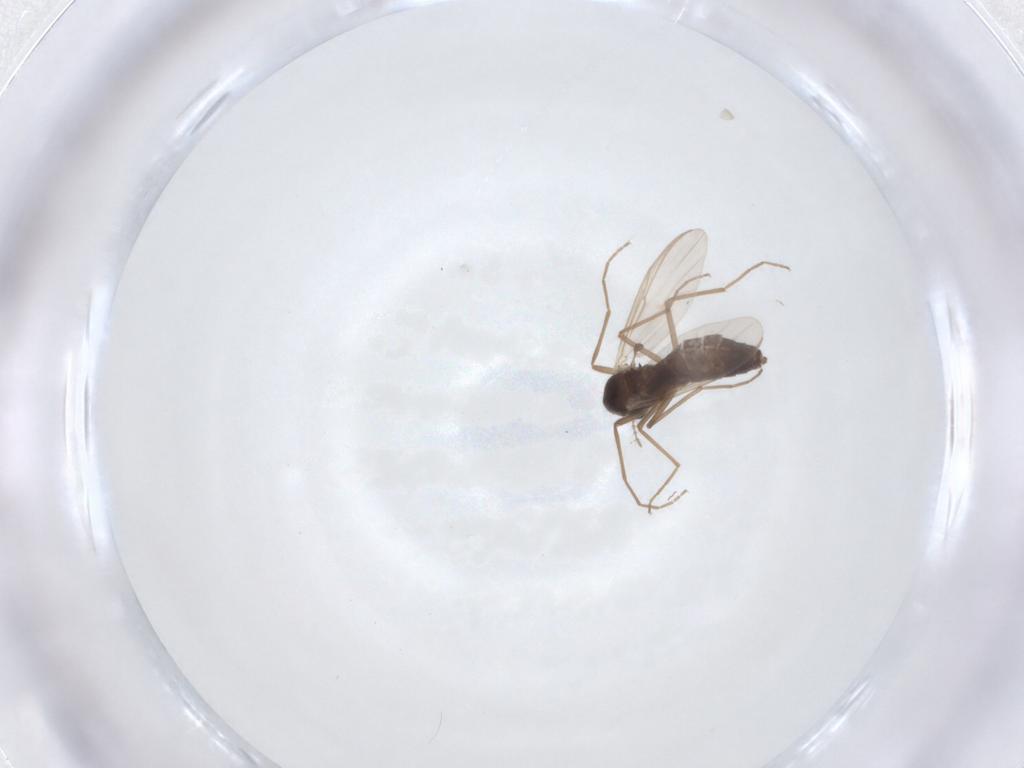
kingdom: Animalia
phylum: Arthropoda
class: Insecta
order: Diptera
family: Chironomidae
